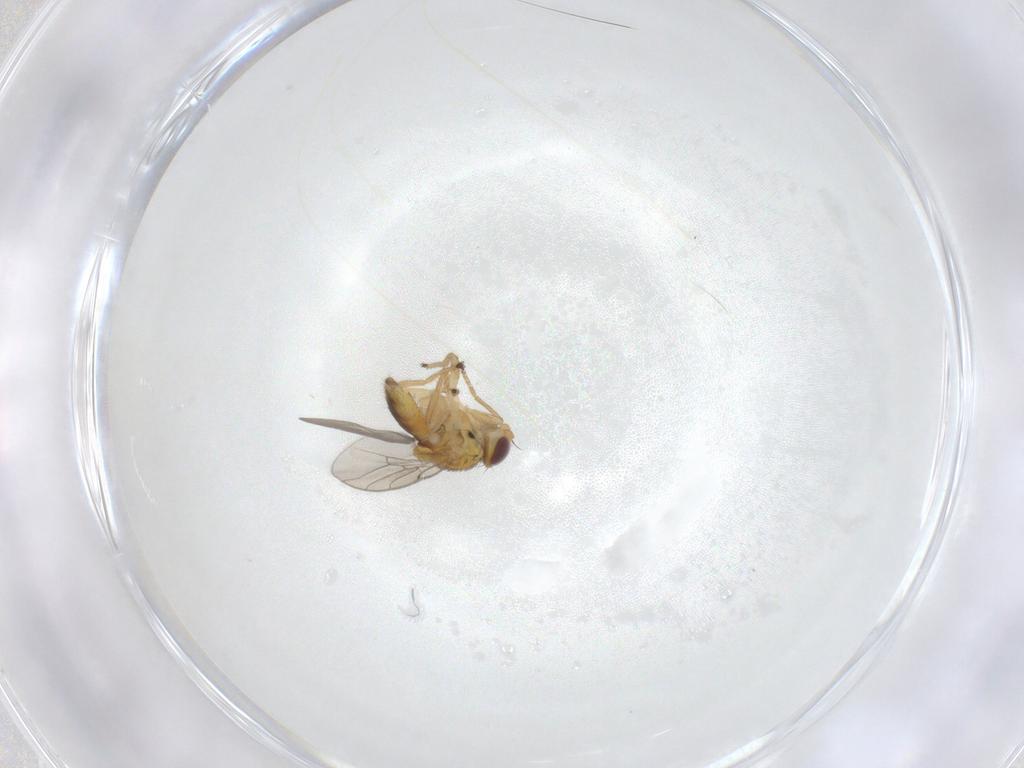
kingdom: Animalia
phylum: Arthropoda
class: Insecta
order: Diptera
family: Chloropidae
